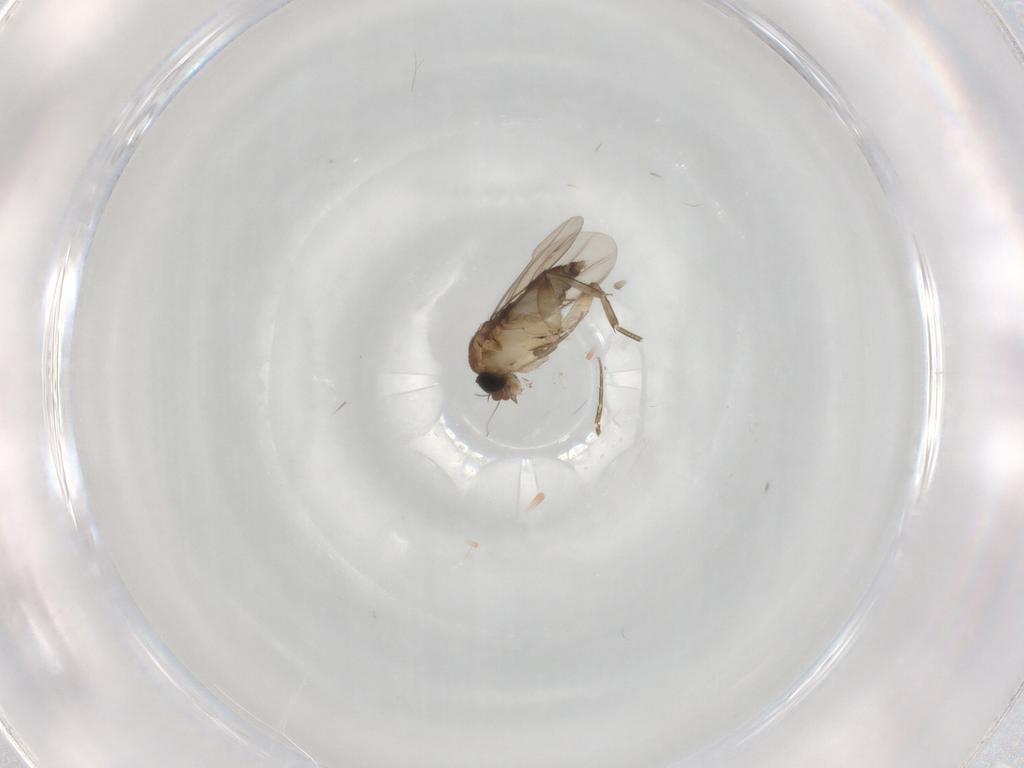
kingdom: Animalia
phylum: Arthropoda
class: Insecta
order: Diptera
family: Phoridae
